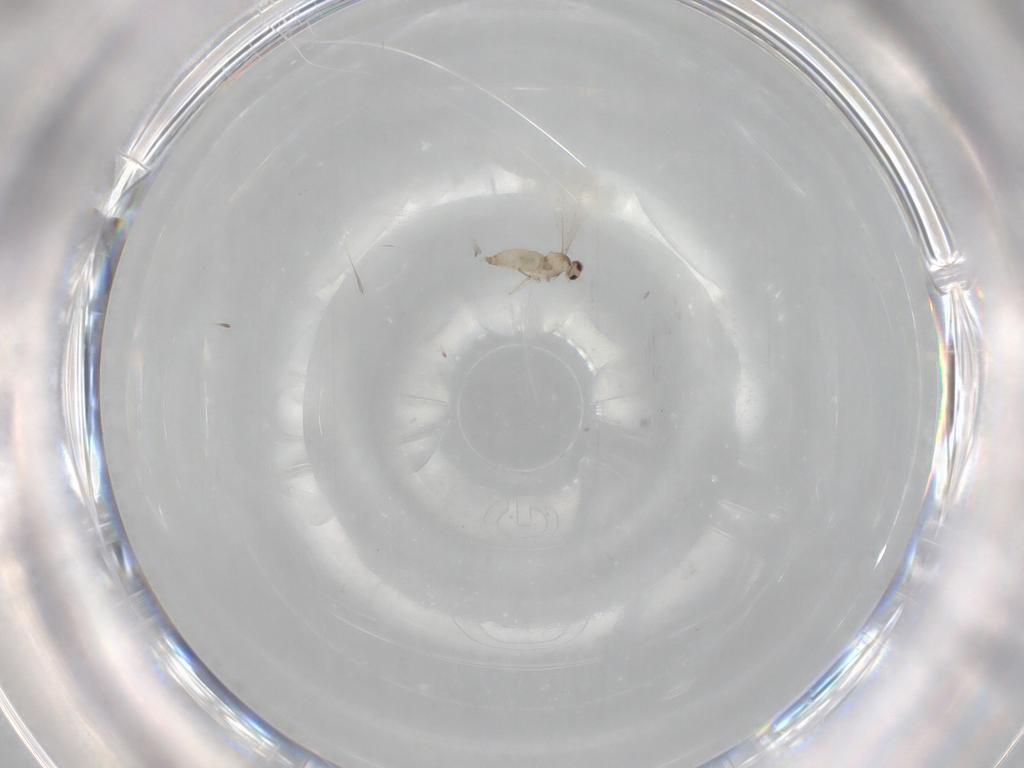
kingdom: Animalia
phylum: Arthropoda
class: Insecta
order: Diptera
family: Cecidomyiidae
